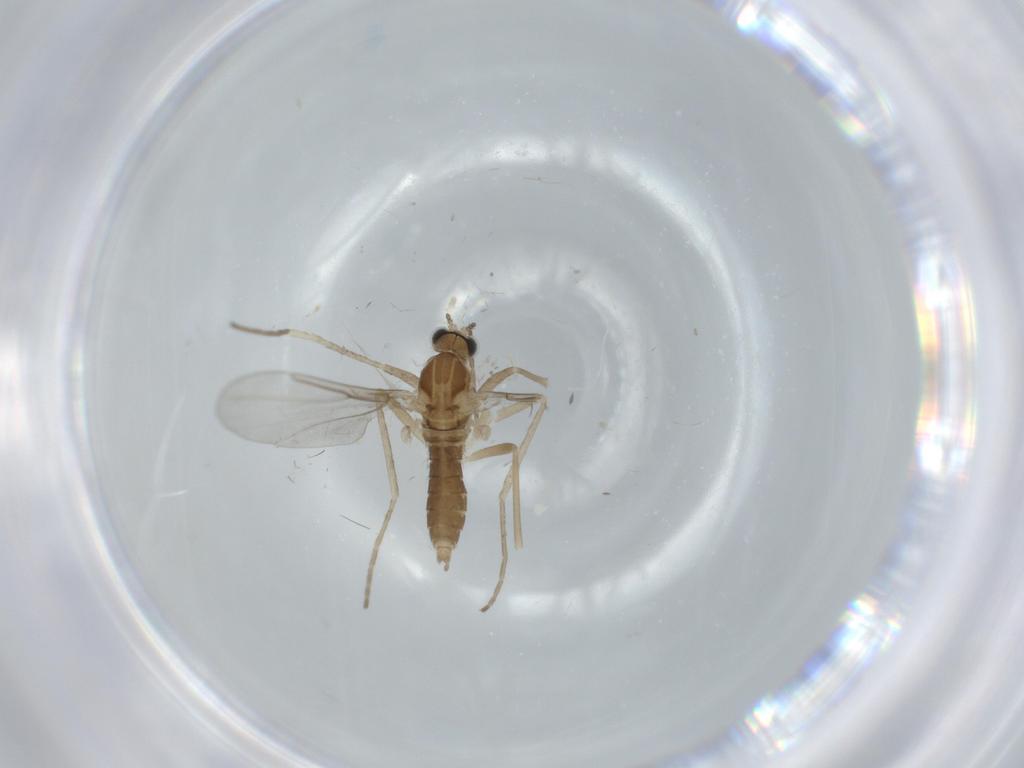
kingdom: Animalia
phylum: Arthropoda
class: Insecta
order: Diptera
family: Cecidomyiidae
